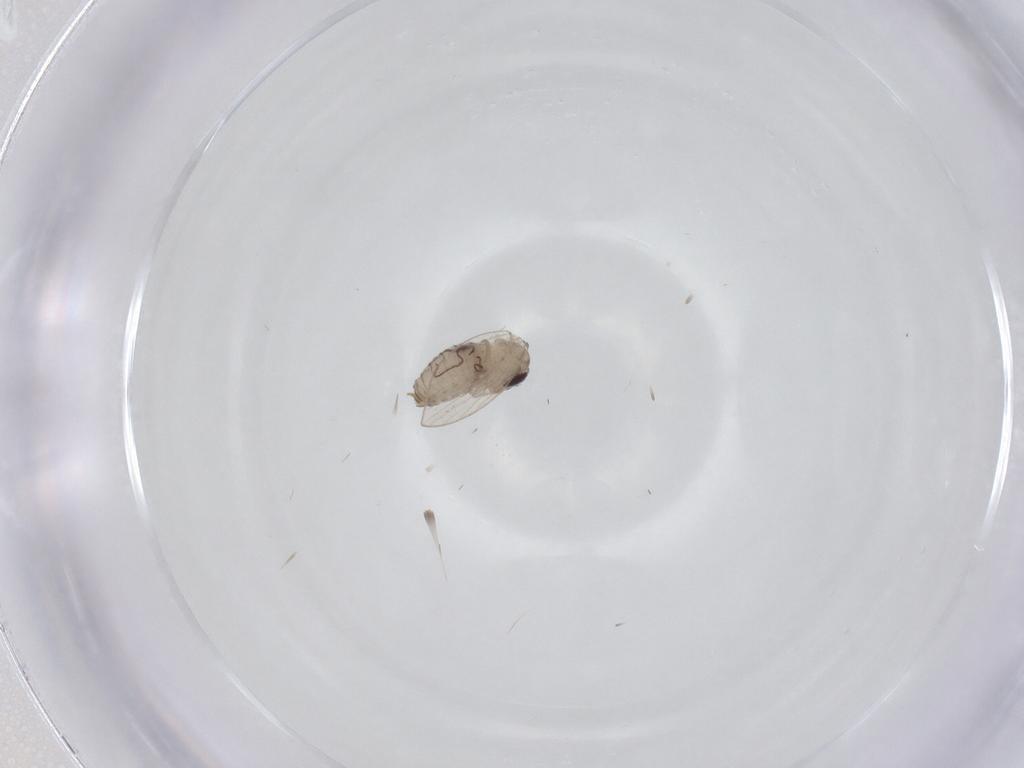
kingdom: Animalia
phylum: Arthropoda
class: Insecta
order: Diptera
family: Psychodidae
